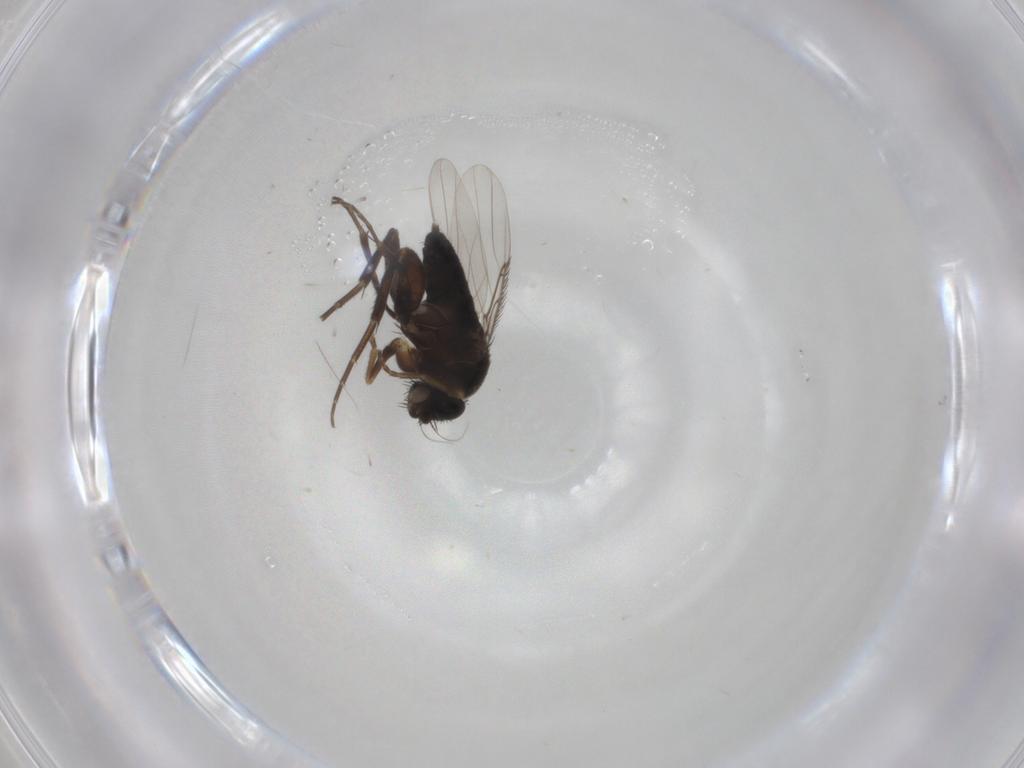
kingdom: Animalia
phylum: Arthropoda
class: Insecta
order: Diptera
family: Phoridae
